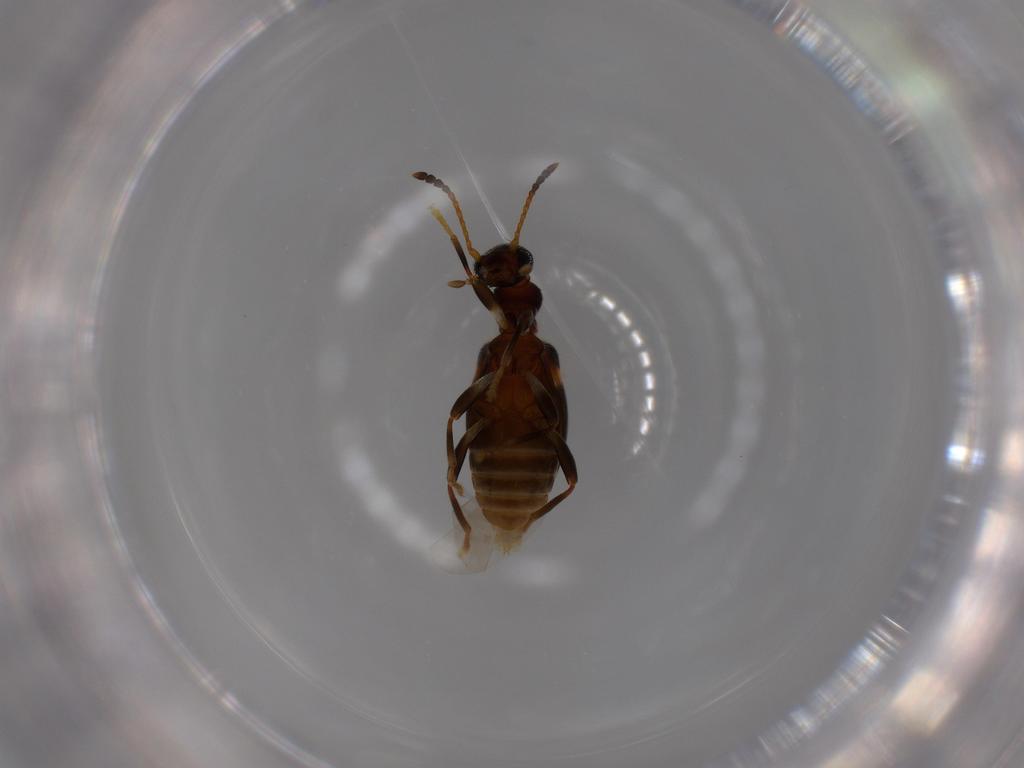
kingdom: Animalia
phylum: Arthropoda
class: Insecta
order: Coleoptera
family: Anthicidae
